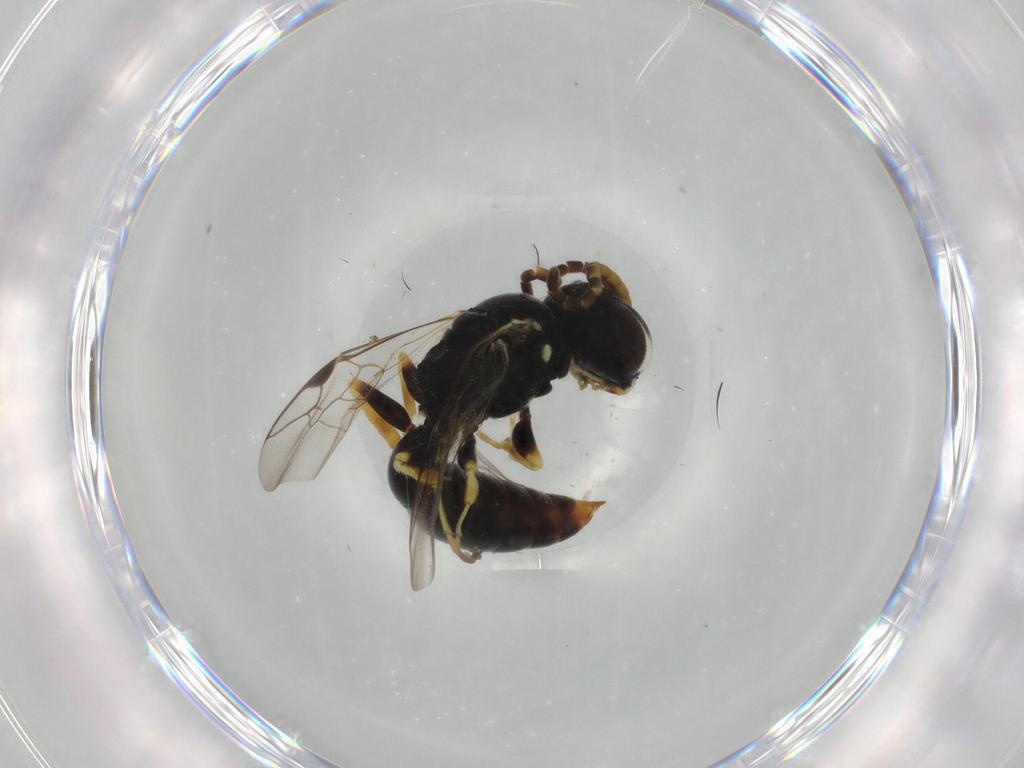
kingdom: Animalia
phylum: Arthropoda
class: Insecta
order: Hymenoptera
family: Crabronidae
